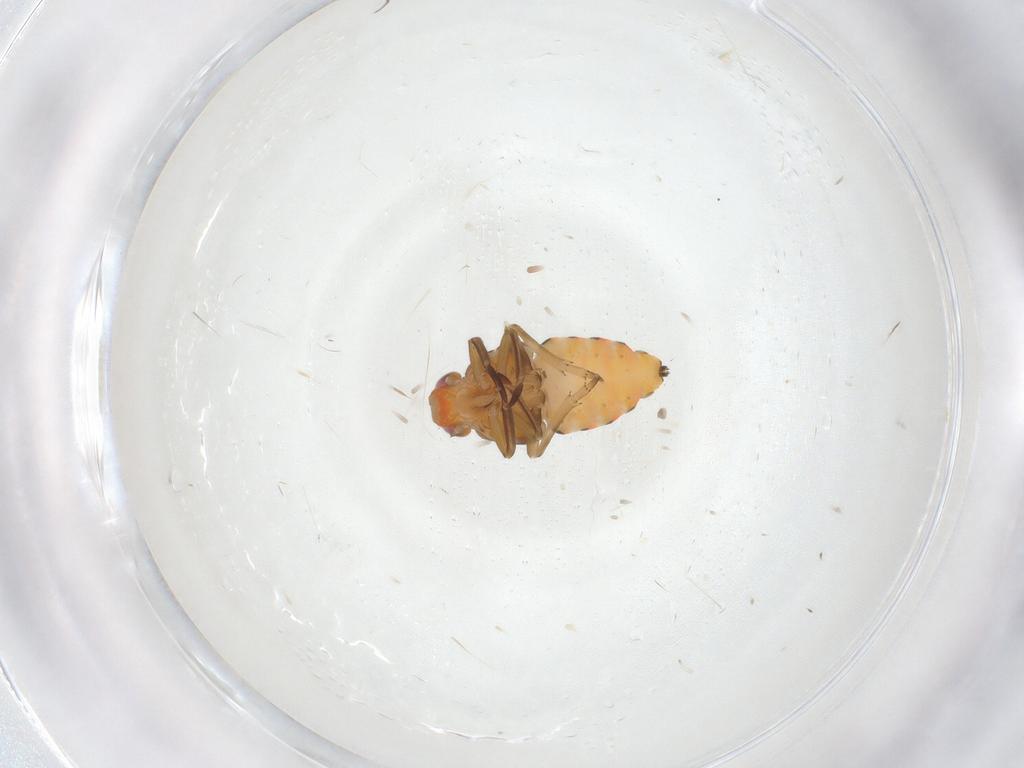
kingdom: Animalia
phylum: Arthropoda
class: Insecta
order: Hemiptera
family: Fulgoroidea_incertae_sedis
